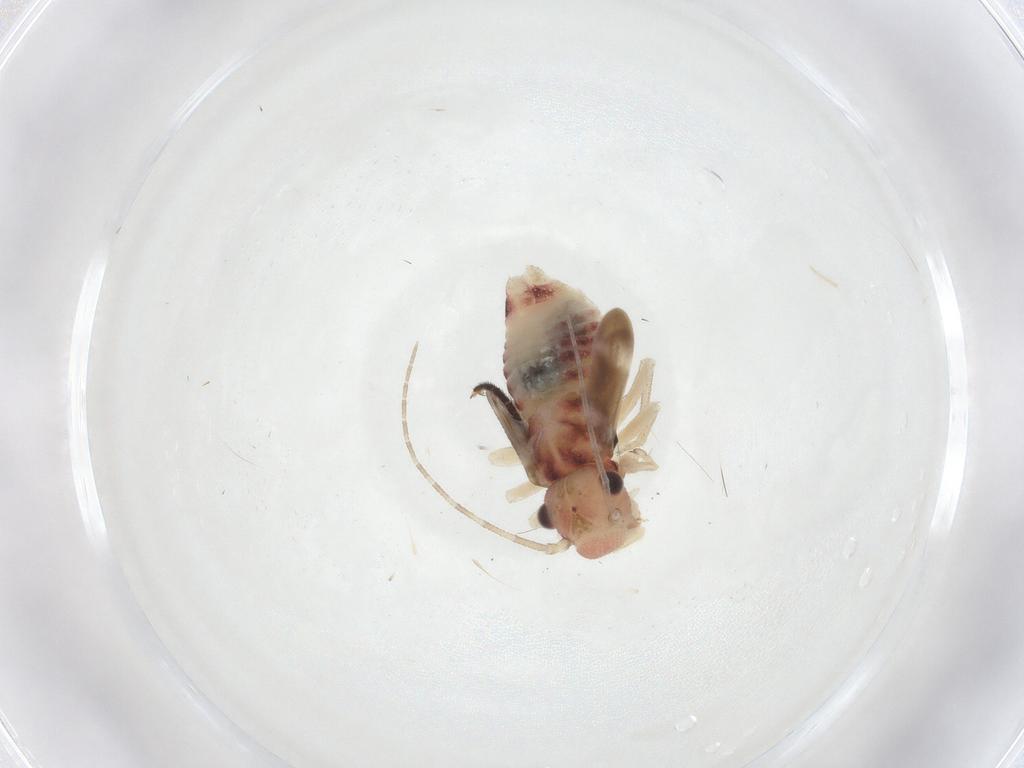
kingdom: Animalia
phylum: Arthropoda
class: Insecta
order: Psocodea
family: Amphipsocidae
